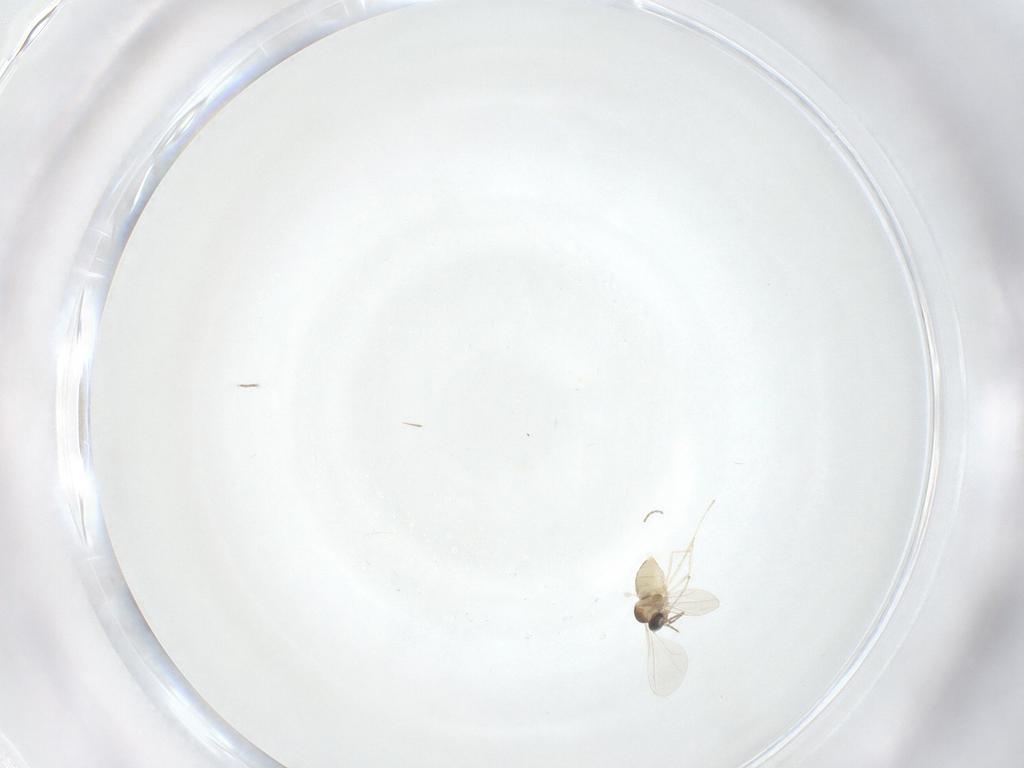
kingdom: Animalia
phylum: Arthropoda
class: Insecta
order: Diptera
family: Cecidomyiidae
